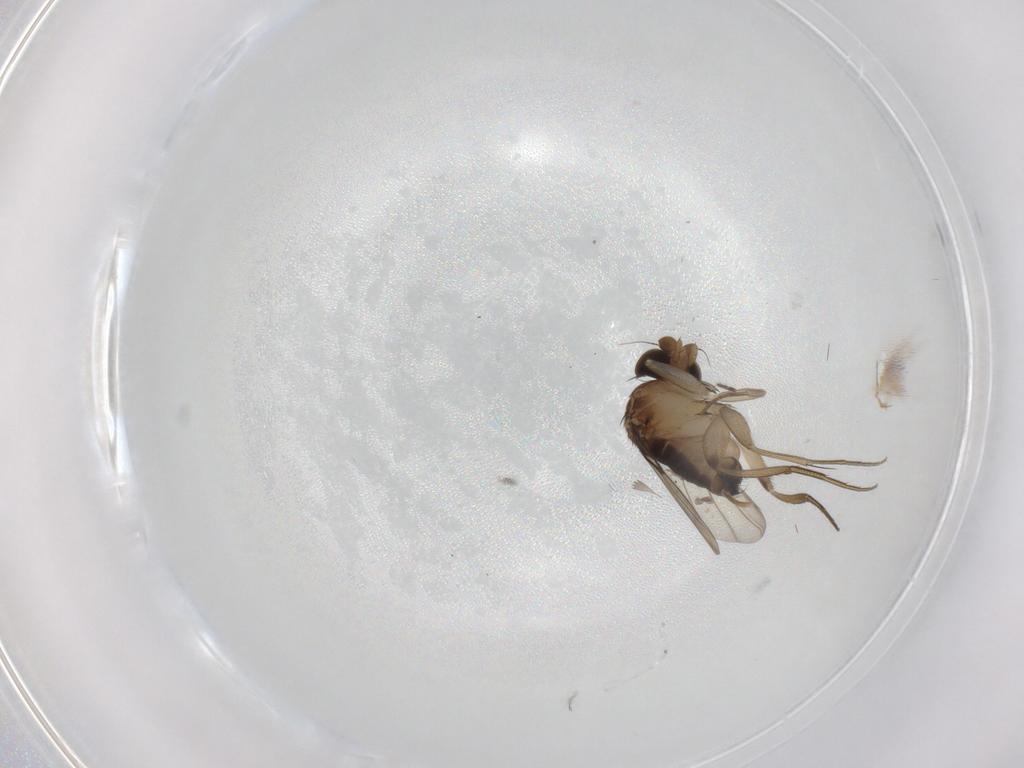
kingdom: Animalia
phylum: Arthropoda
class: Insecta
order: Diptera
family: Phoridae
